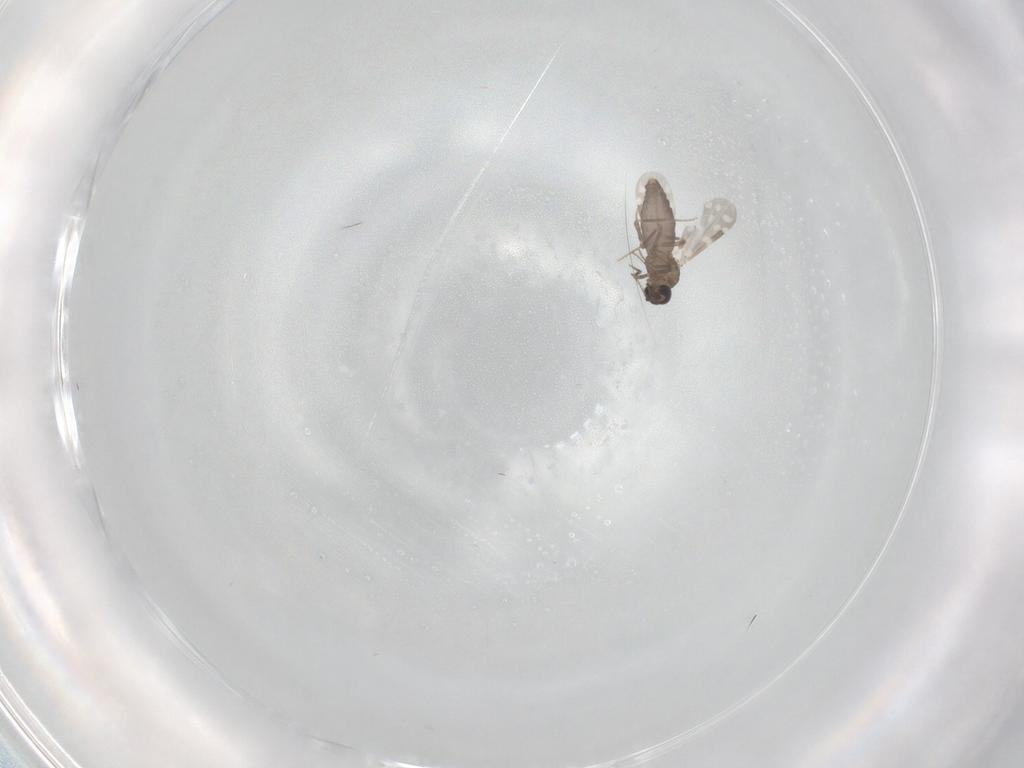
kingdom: Animalia
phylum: Arthropoda
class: Insecta
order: Diptera
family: Ceratopogonidae
